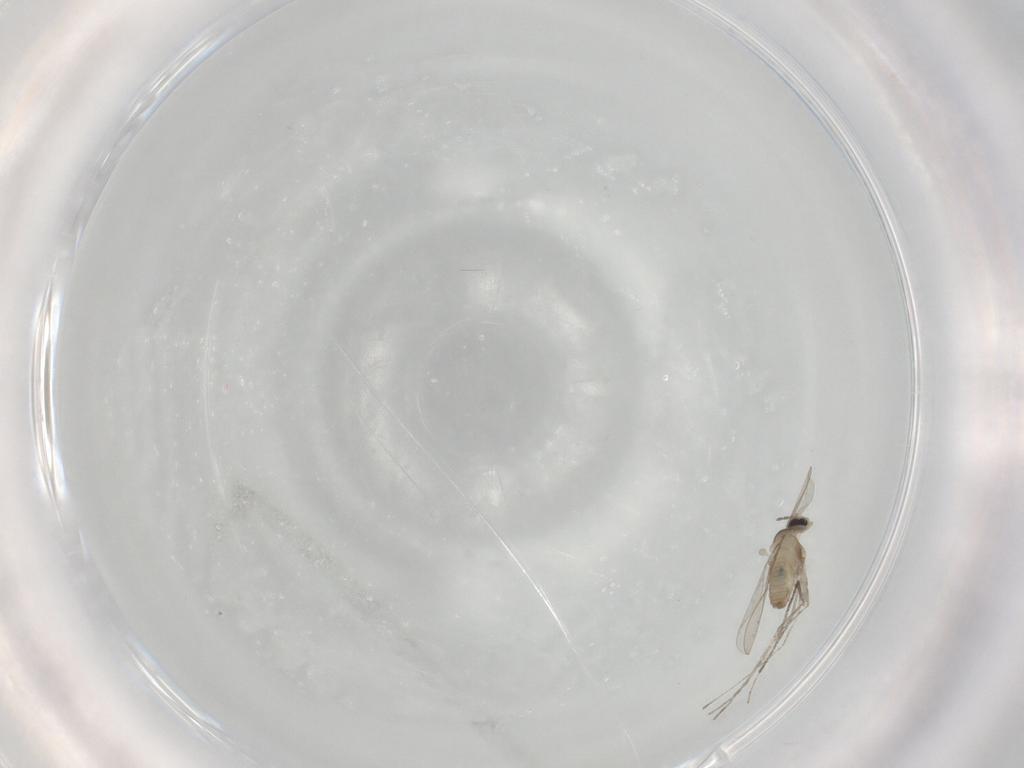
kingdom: Animalia
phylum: Arthropoda
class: Insecta
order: Diptera
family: Cecidomyiidae
